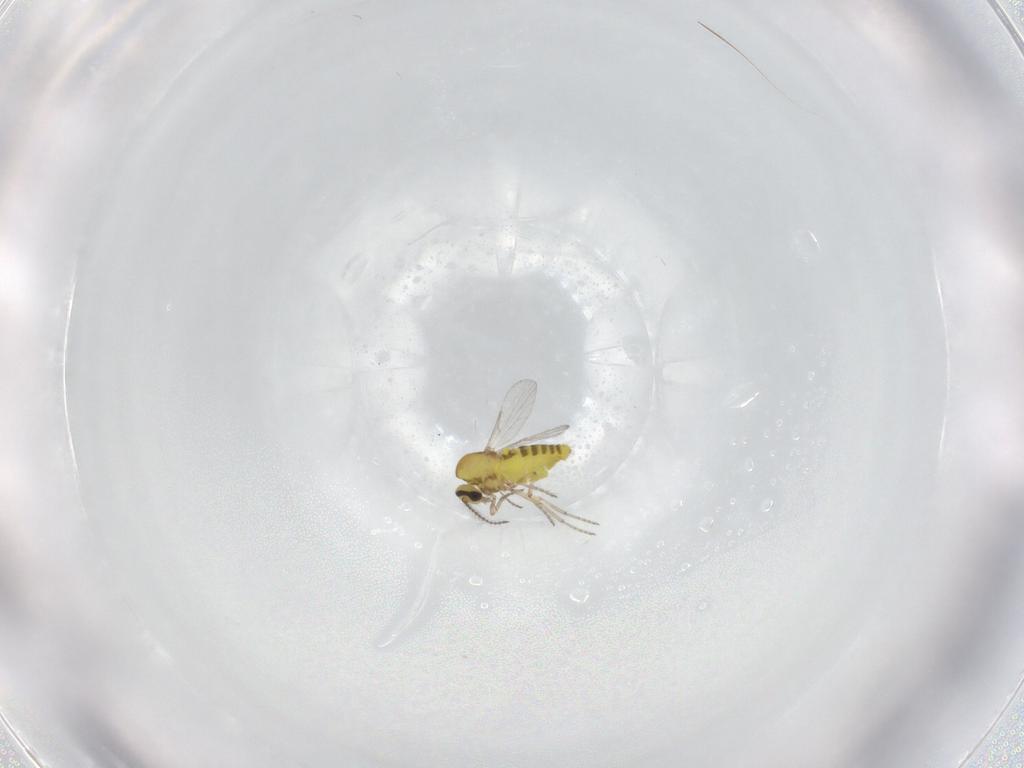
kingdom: Animalia
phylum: Arthropoda
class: Insecta
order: Diptera
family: Ceratopogonidae
